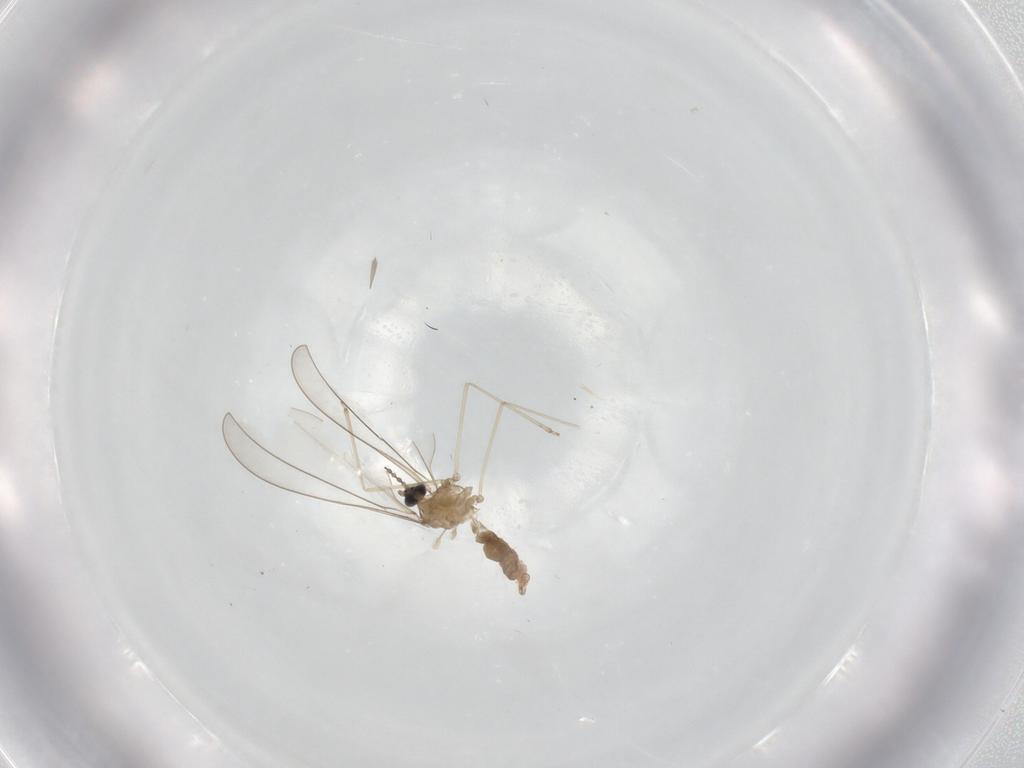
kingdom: Animalia
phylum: Arthropoda
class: Insecta
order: Diptera
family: Cecidomyiidae
